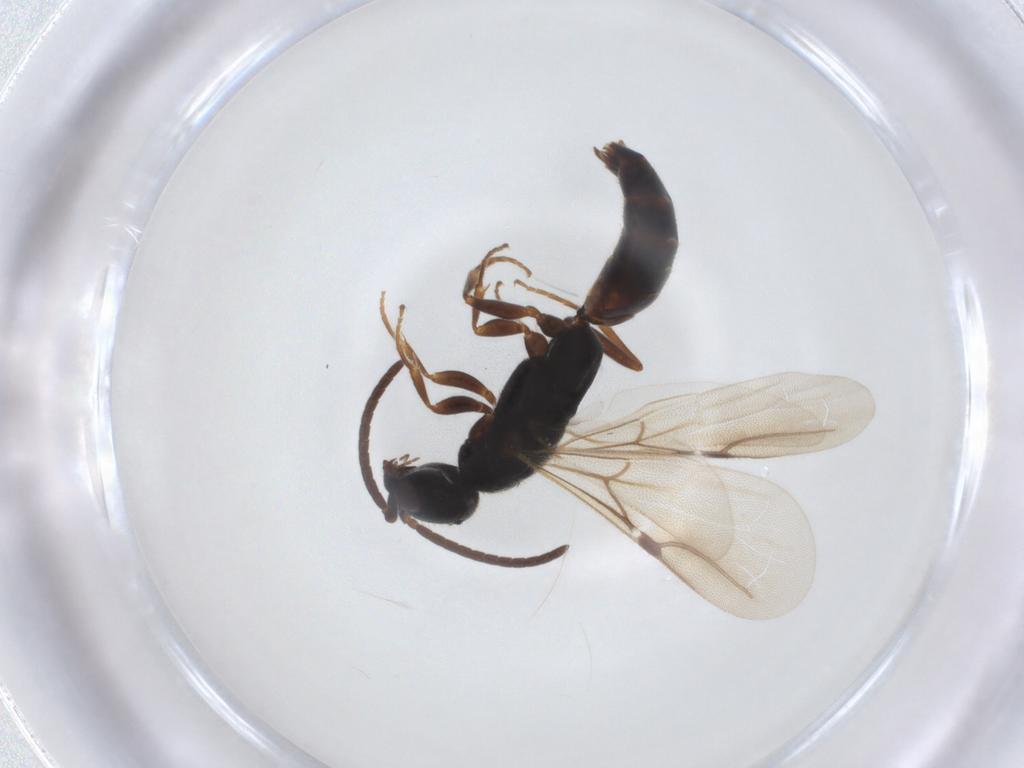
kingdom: Animalia
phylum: Arthropoda
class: Insecta
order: Hymenoptera
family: Bethylidae
